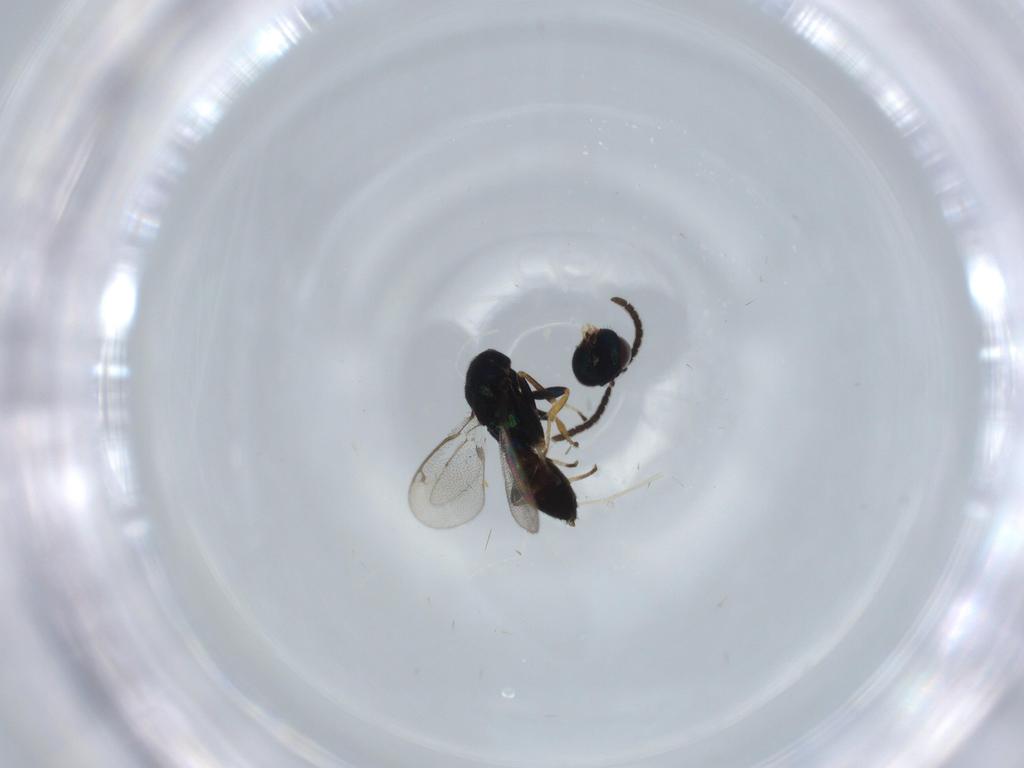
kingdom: Animalia
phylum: Arthropoda
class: Insecta
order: Hymenoptera
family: Eupelmidae
